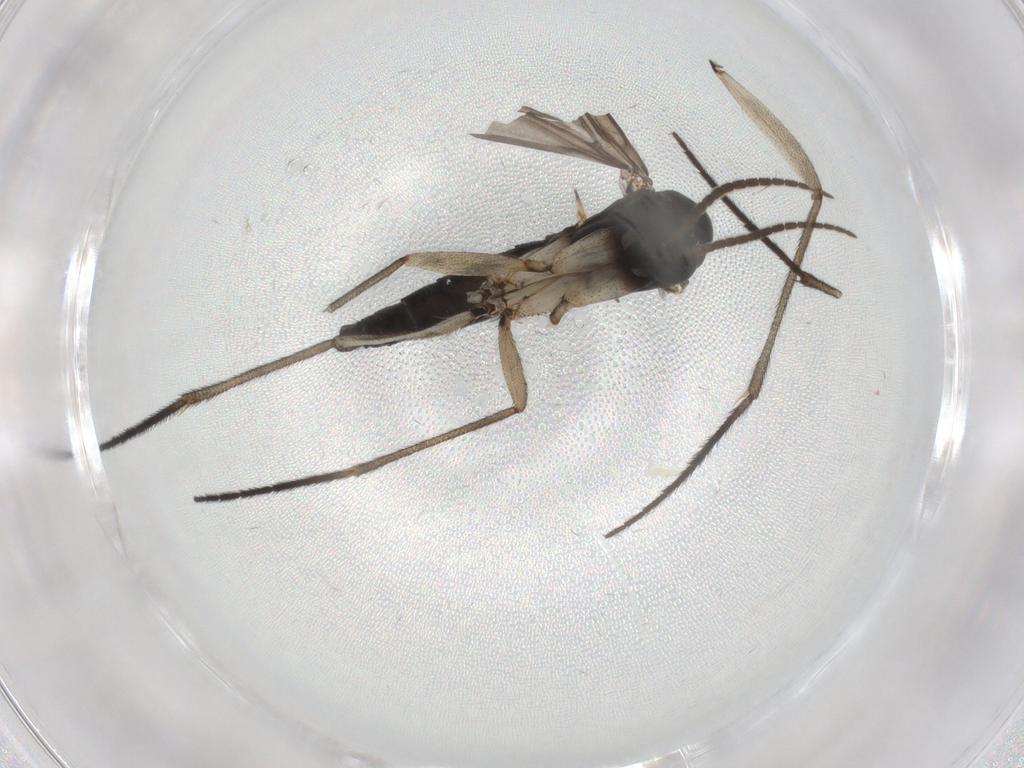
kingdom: Animalia
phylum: Arthropoda
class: Insecta
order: Diptera
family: Sciaridae
